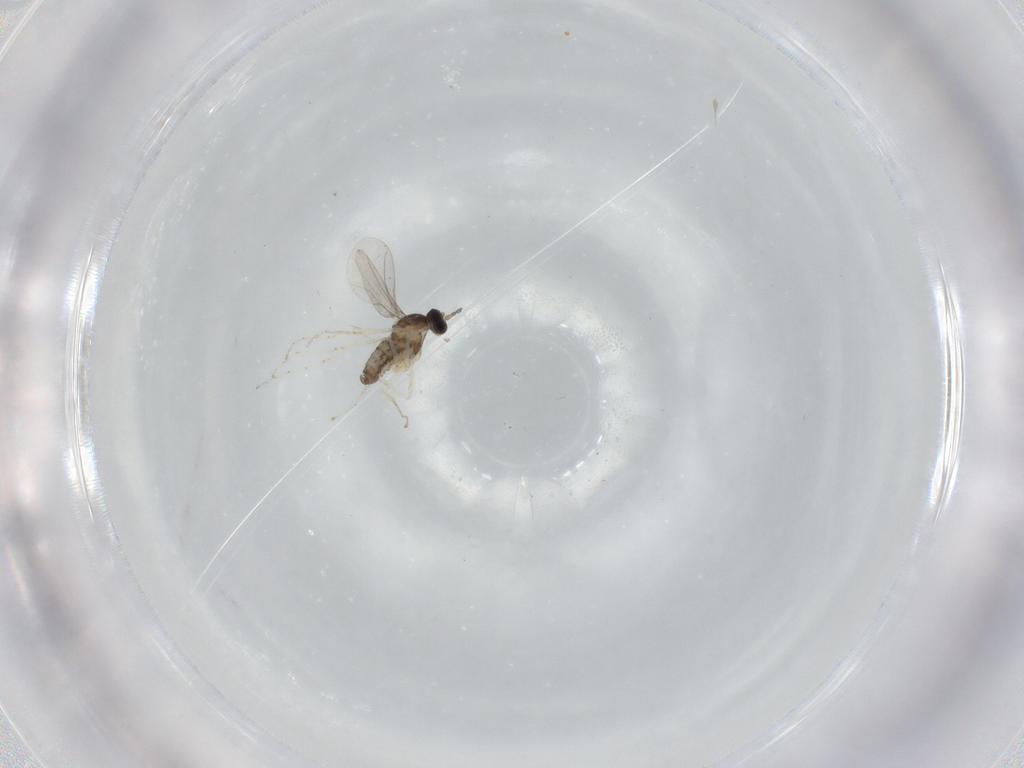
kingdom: Animalia
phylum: Arthropoda
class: Insecta
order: Diptera
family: Cecidomyiidae
